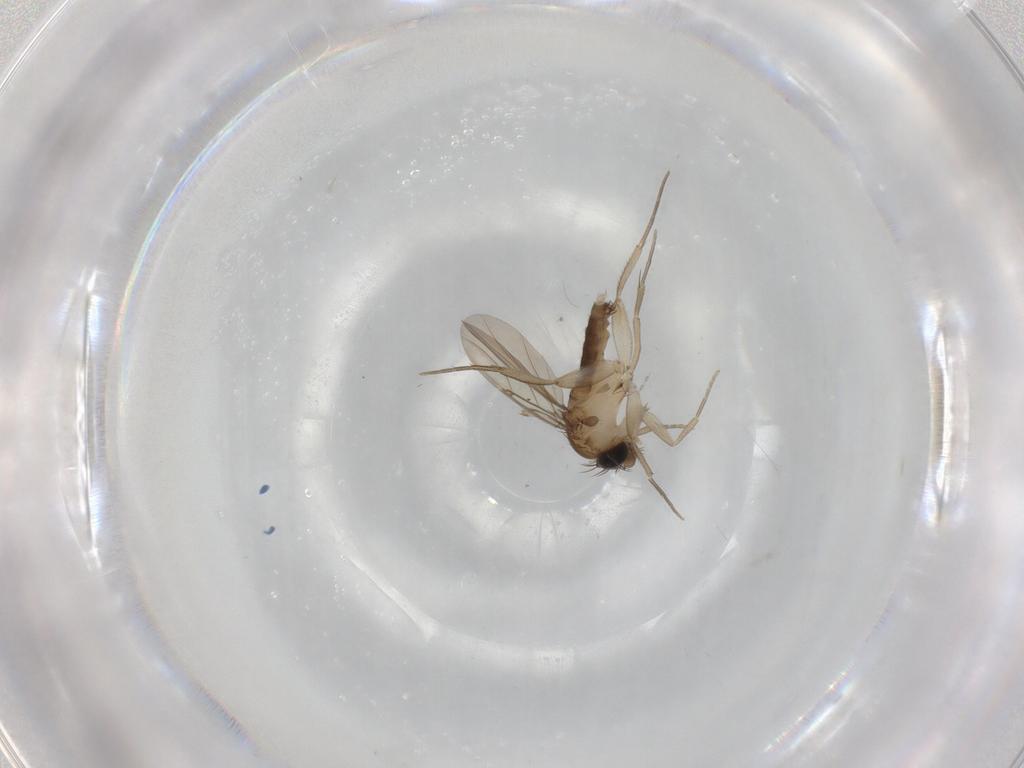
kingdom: Animalia
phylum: Arthropoda
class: Insecta
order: Diptera
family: Phoridae
